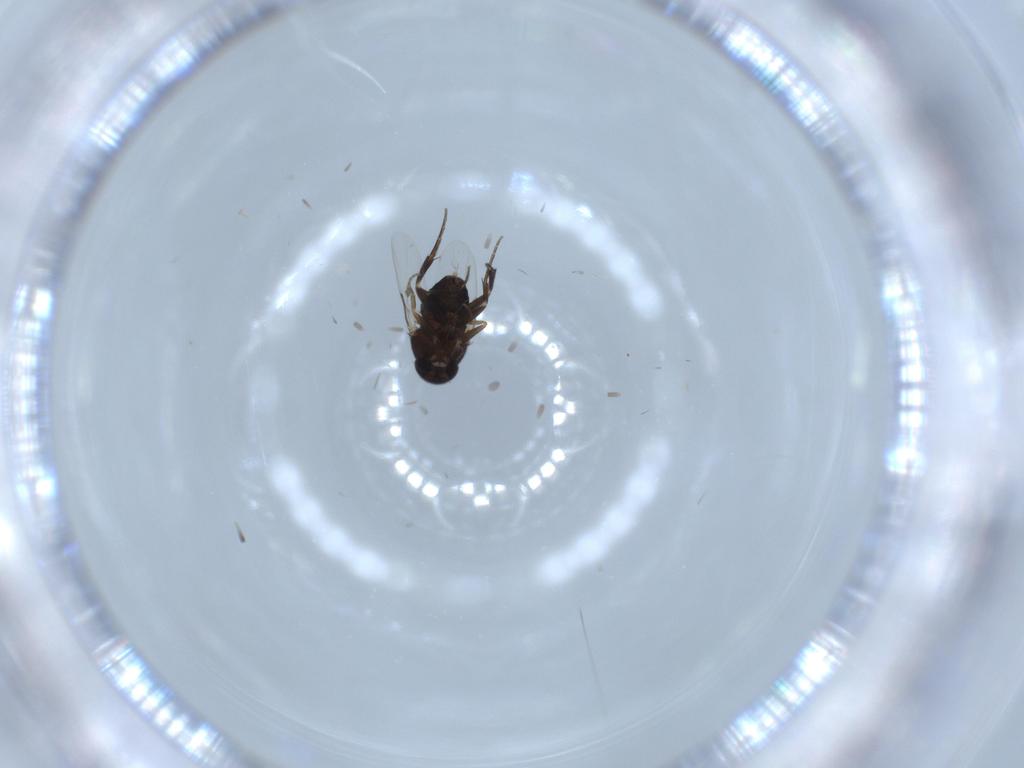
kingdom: Animalia
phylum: Arthropoda
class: Insecta
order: Diptera
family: Phoridae
